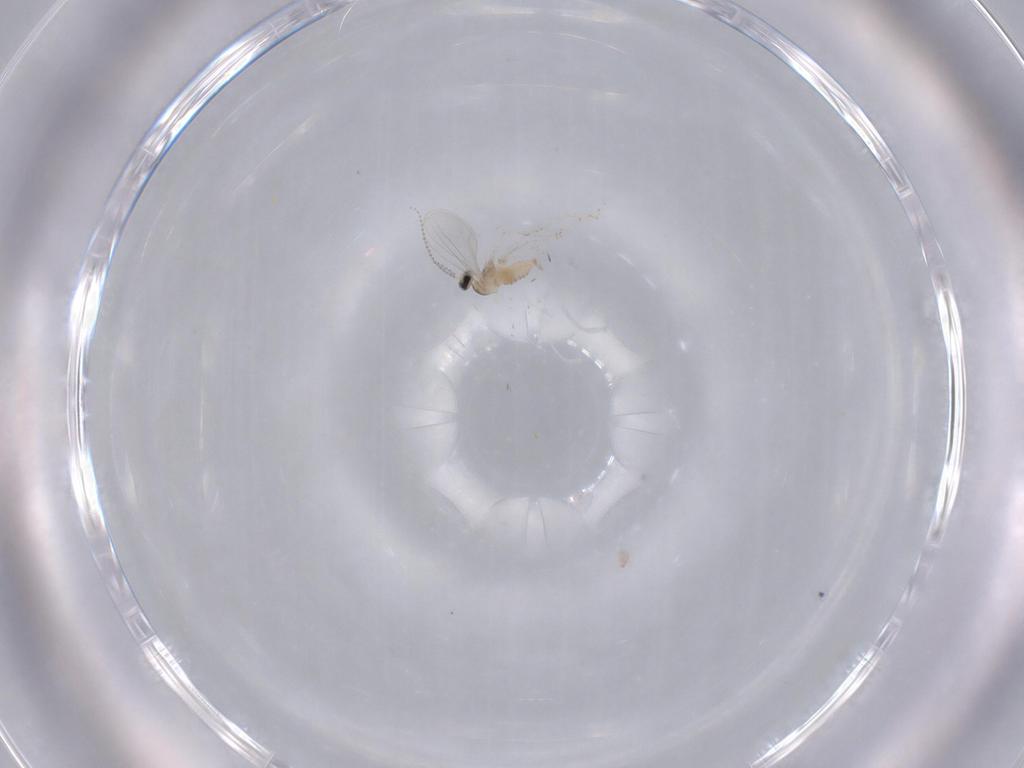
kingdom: Animalia
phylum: Arthropoda
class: Insecta
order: Diptera
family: Cecidomyiidae
